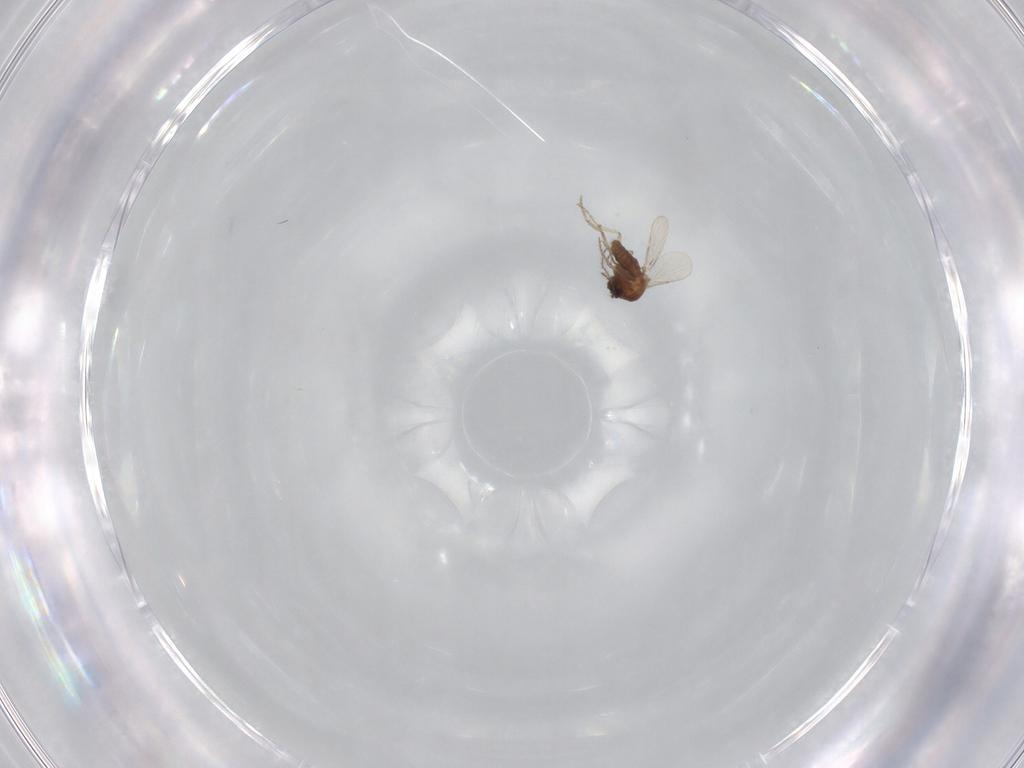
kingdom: Animalia
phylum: Arthropoda
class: Insecta
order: Diptera
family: Ceratopogonidae
